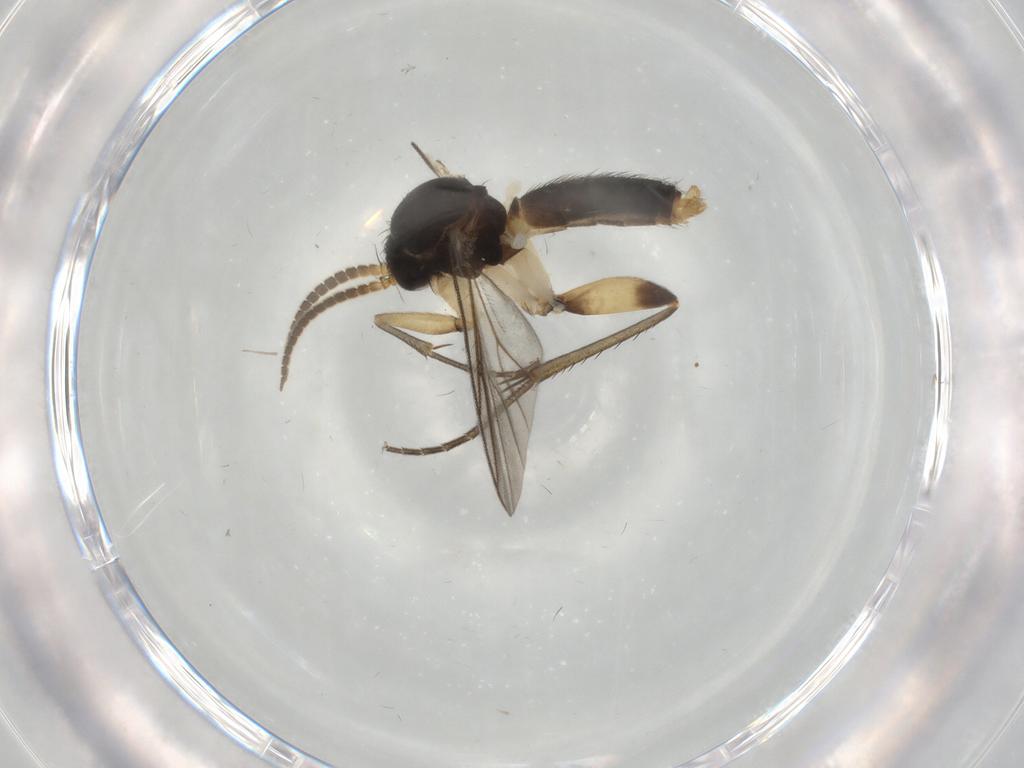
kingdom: Animalia
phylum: Arthropoda
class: Insecta
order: Diptera
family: Mycetophilidae
